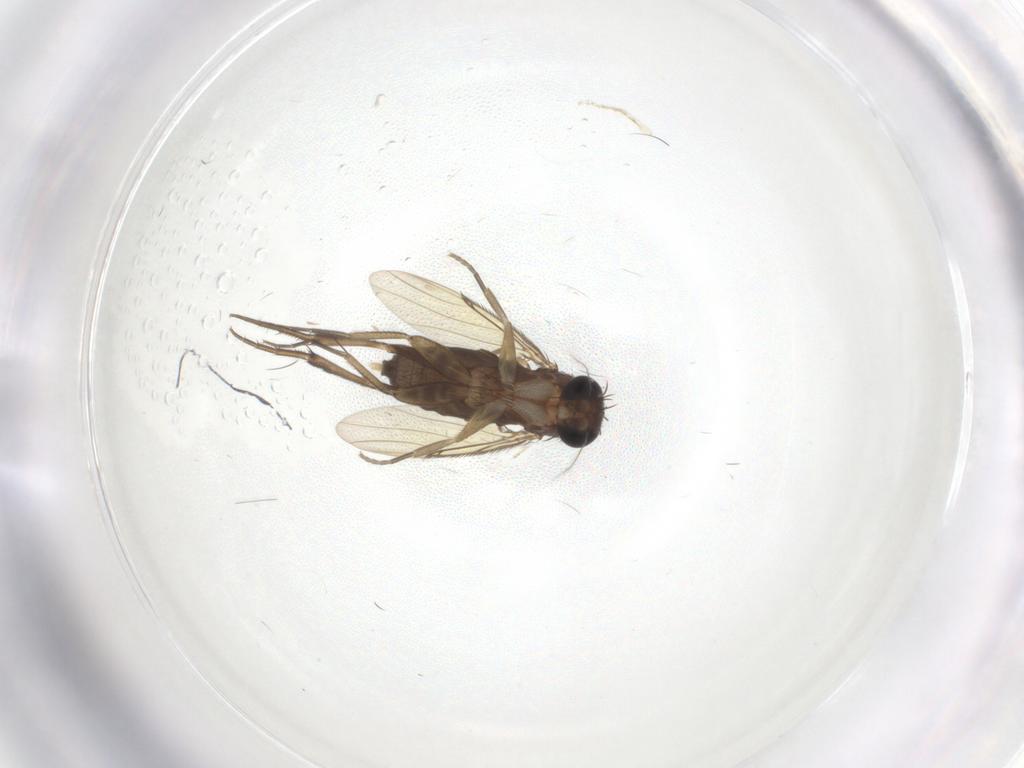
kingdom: Animalia
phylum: Arthropoda
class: Insecta
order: Diptera
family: Phoridae
